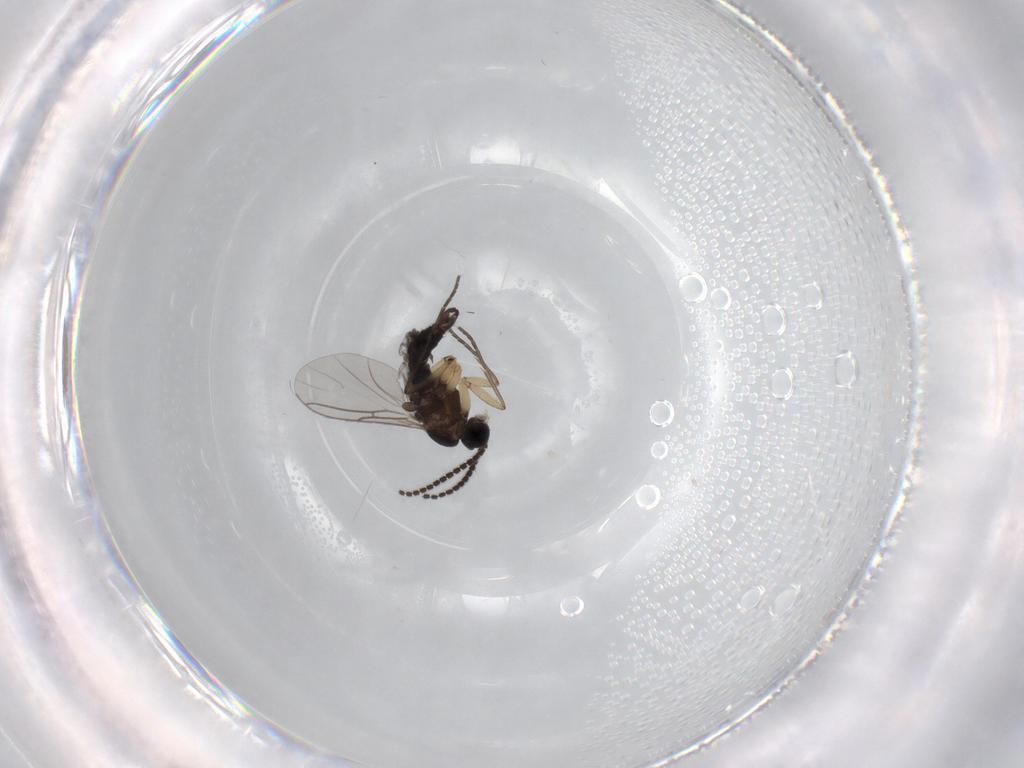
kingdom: Animalia
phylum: Arthropoda
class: Insecta
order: Diptera
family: Sciaridae
